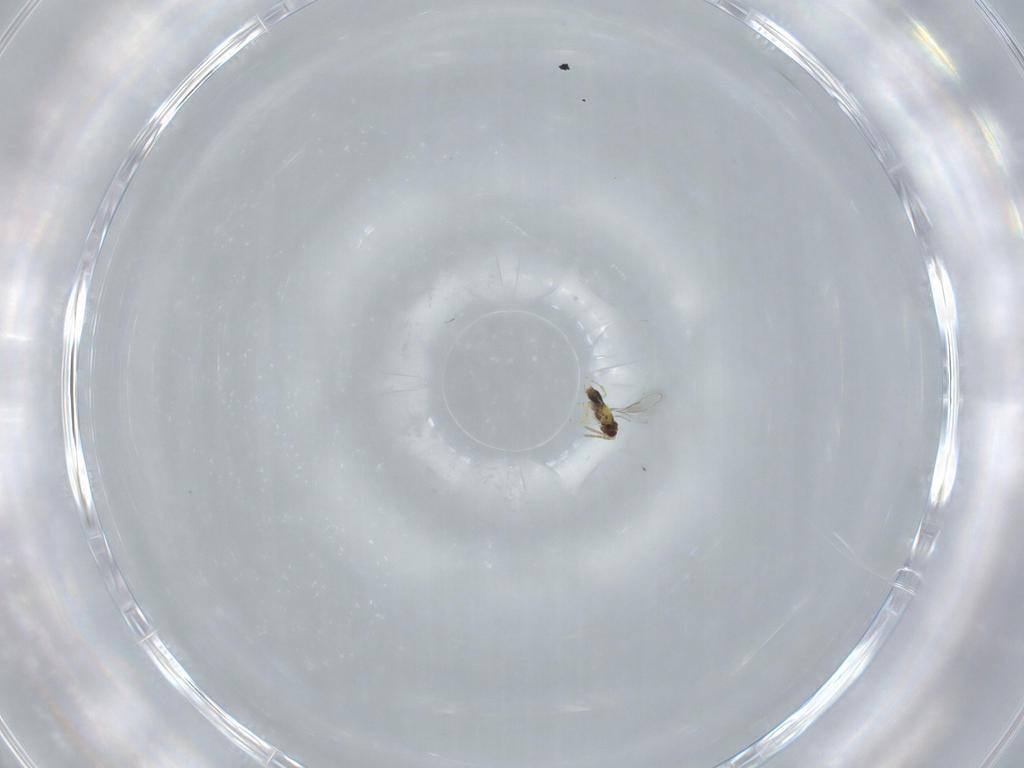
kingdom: Animalia
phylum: Arthropoda
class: Insecta
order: Hymenoptera
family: Aphelinidae
